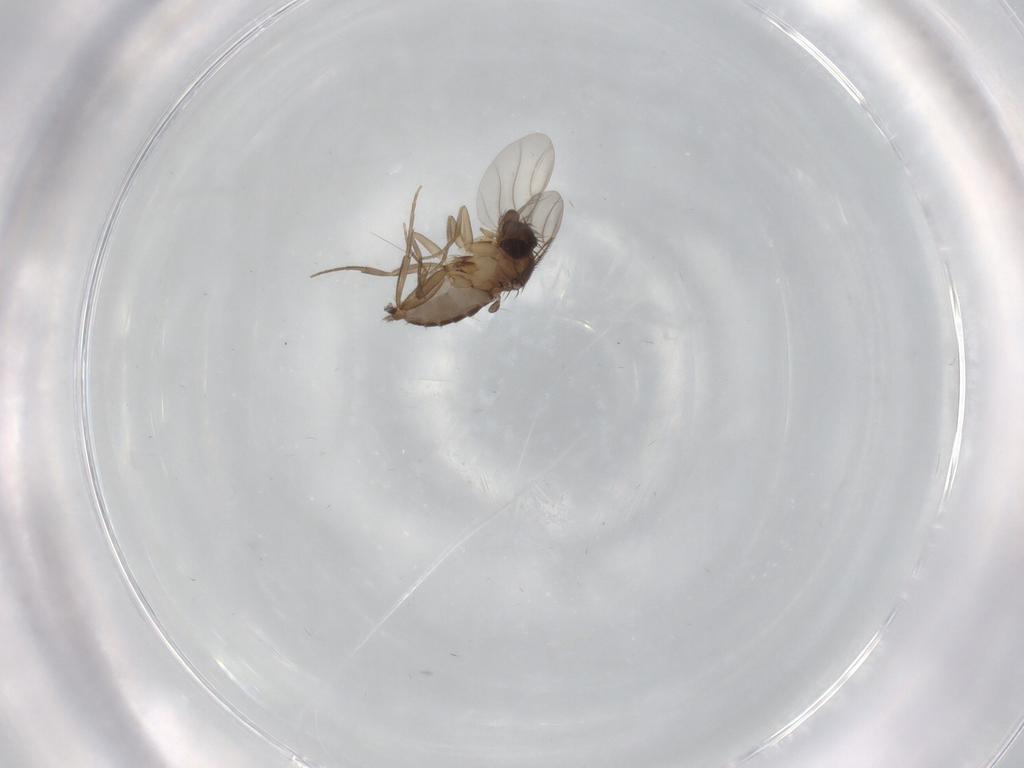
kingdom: Animalia
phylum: Arthropoda
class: Insecta
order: Diptera
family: Phoridae
